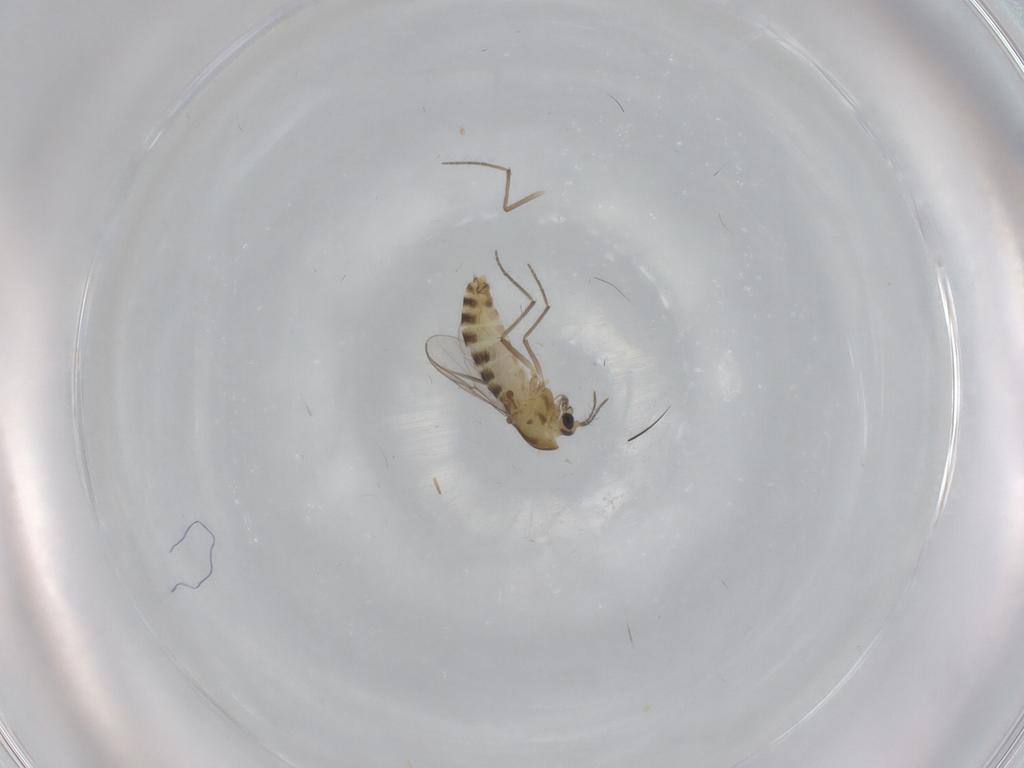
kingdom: Animalia
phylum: Arthropoda
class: Insecta
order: Diptera
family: Chironomidae
